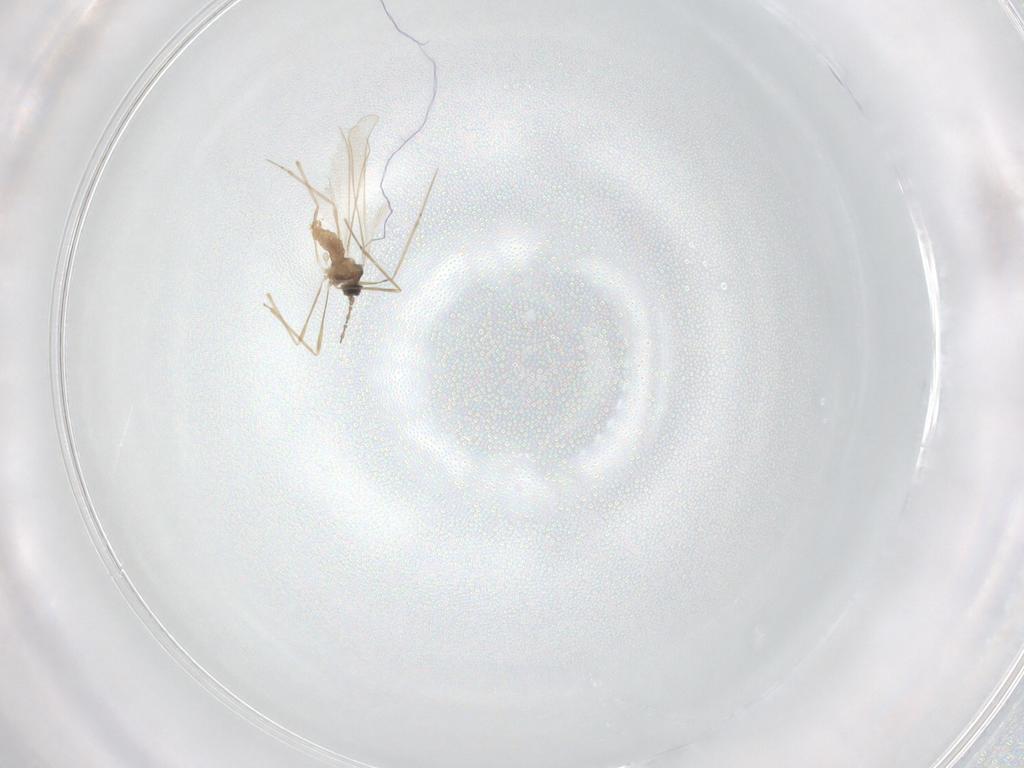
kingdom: Animalia
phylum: Arthropoda
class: Insecta
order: Diptera
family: Cecidomyiidae
